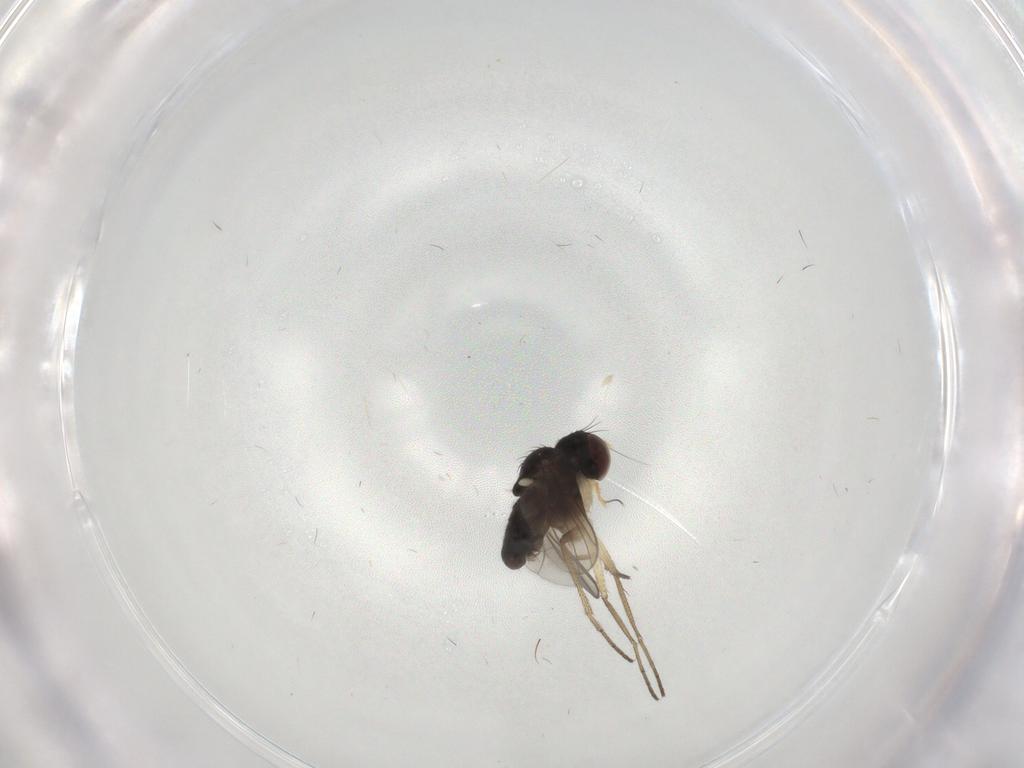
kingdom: Animalia
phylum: Arthropoda
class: Insecta
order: Diptera
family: Dolichopodidae
